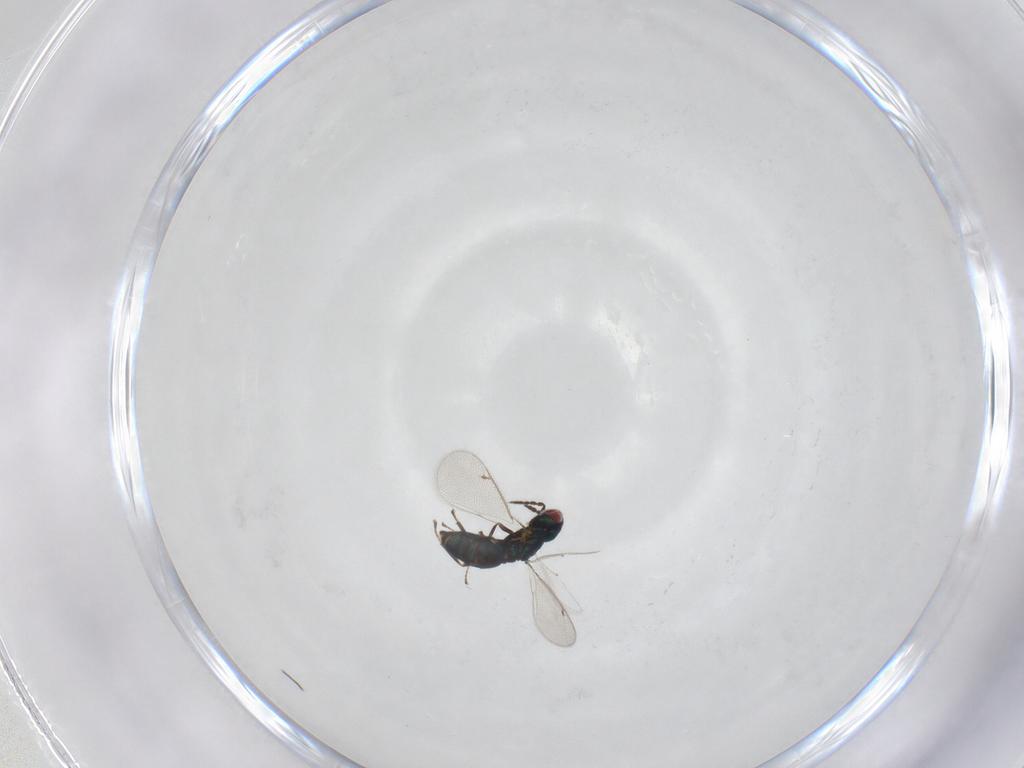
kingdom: Animalia
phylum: Arthropoda
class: Insecta
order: Hymenoptera
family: Eulophidae
